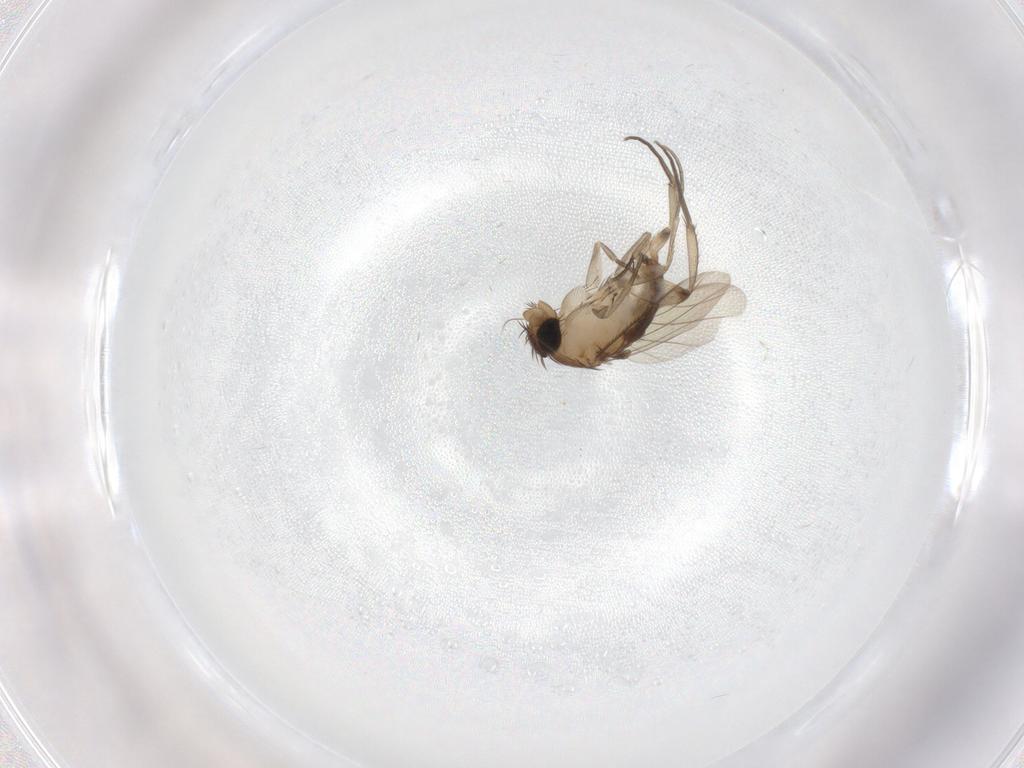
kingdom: Animalia
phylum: Arthropoda
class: Insecta
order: Diptera
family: Phoridae
